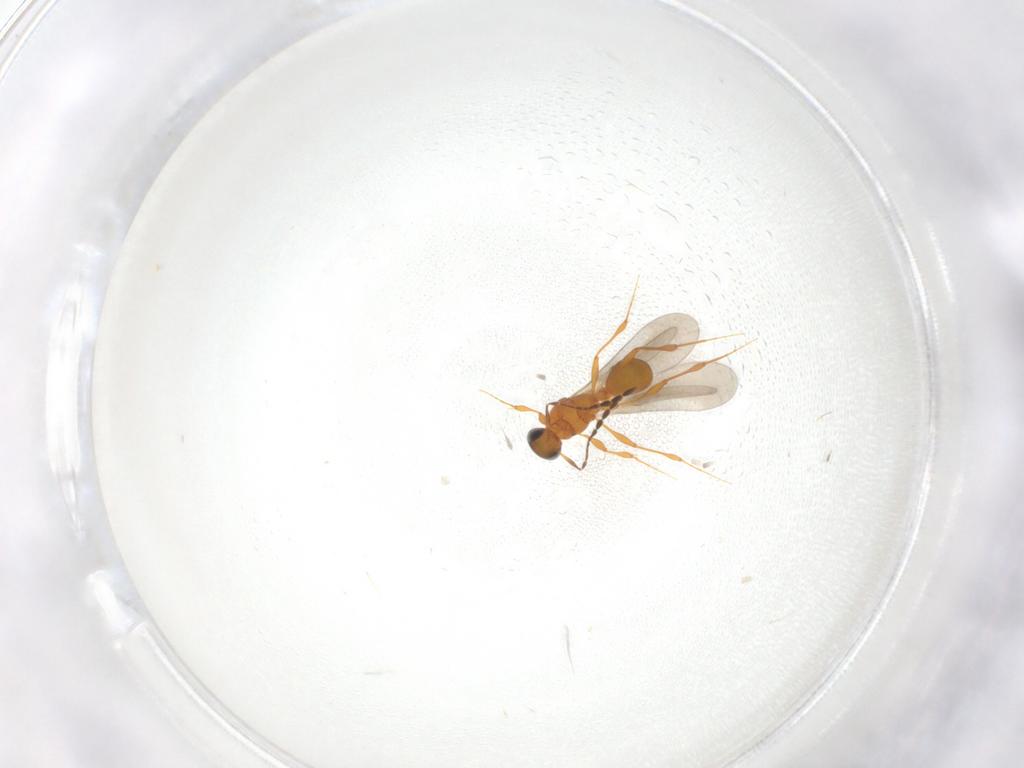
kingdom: Animalia
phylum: Arthropoda
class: Insecta
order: Hymenoptera
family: Platygastridae
